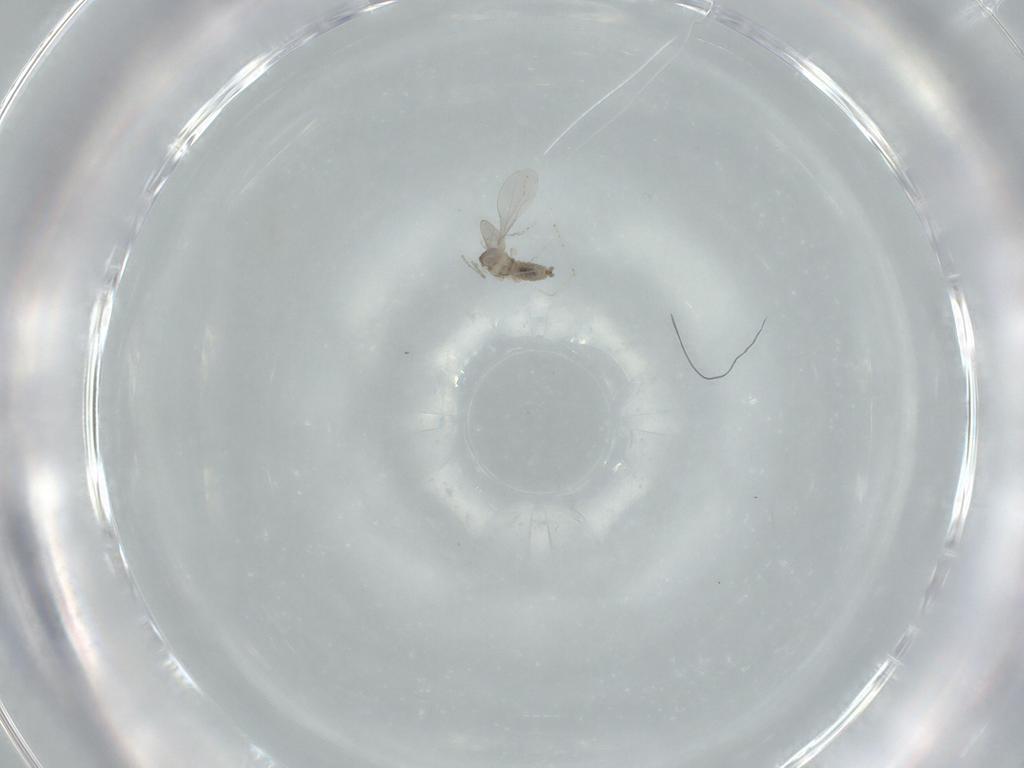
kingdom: Animalia
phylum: Arthropoda
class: Insecta
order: Diptera
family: Cecidomyiidae
